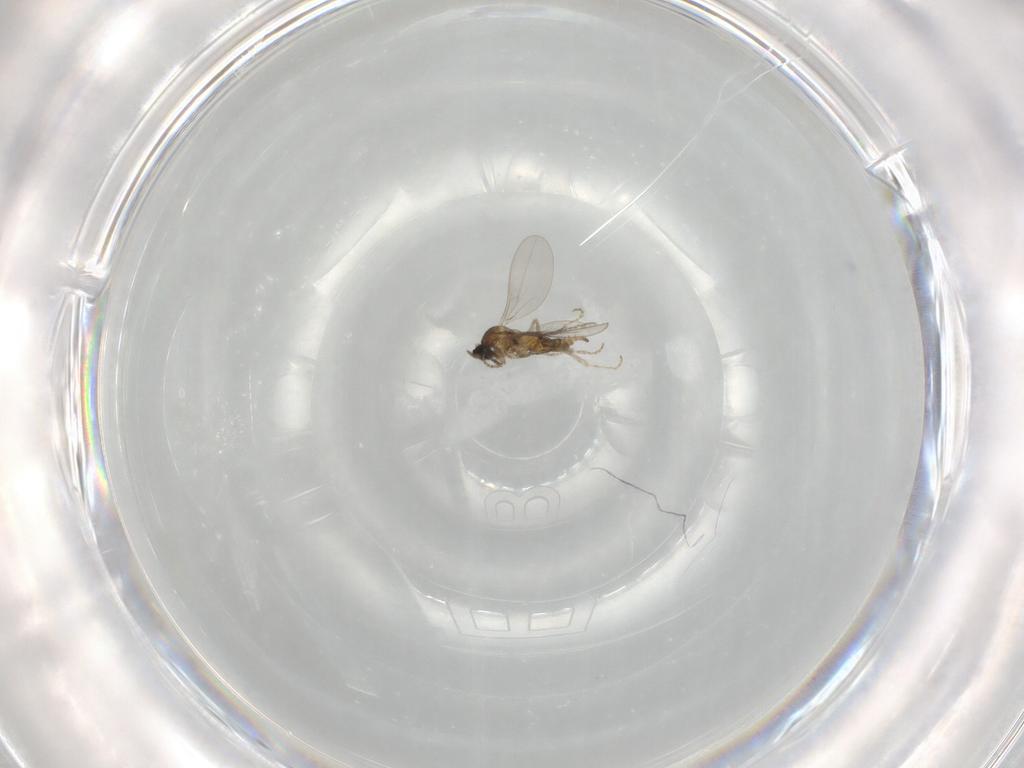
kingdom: Animalia
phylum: Arthropoda
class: Insecta
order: Diptera
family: Cecidomyiidae
